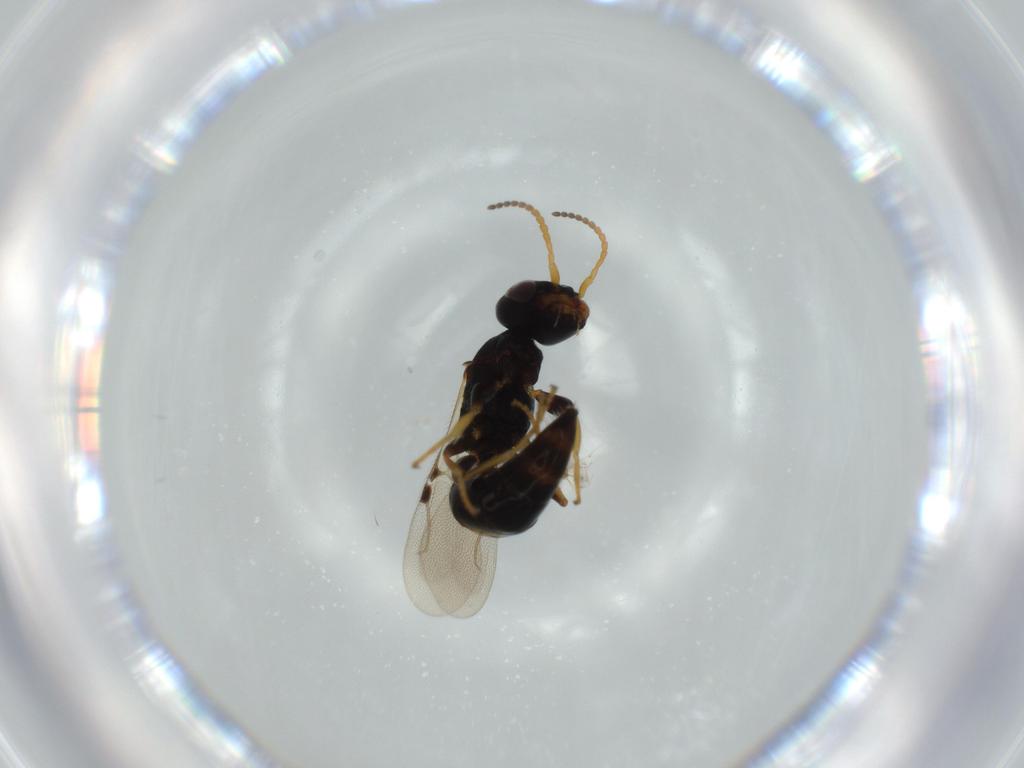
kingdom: Animalia
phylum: Arthropoda
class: Insecta
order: Hymenoptera
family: Bethylidae
